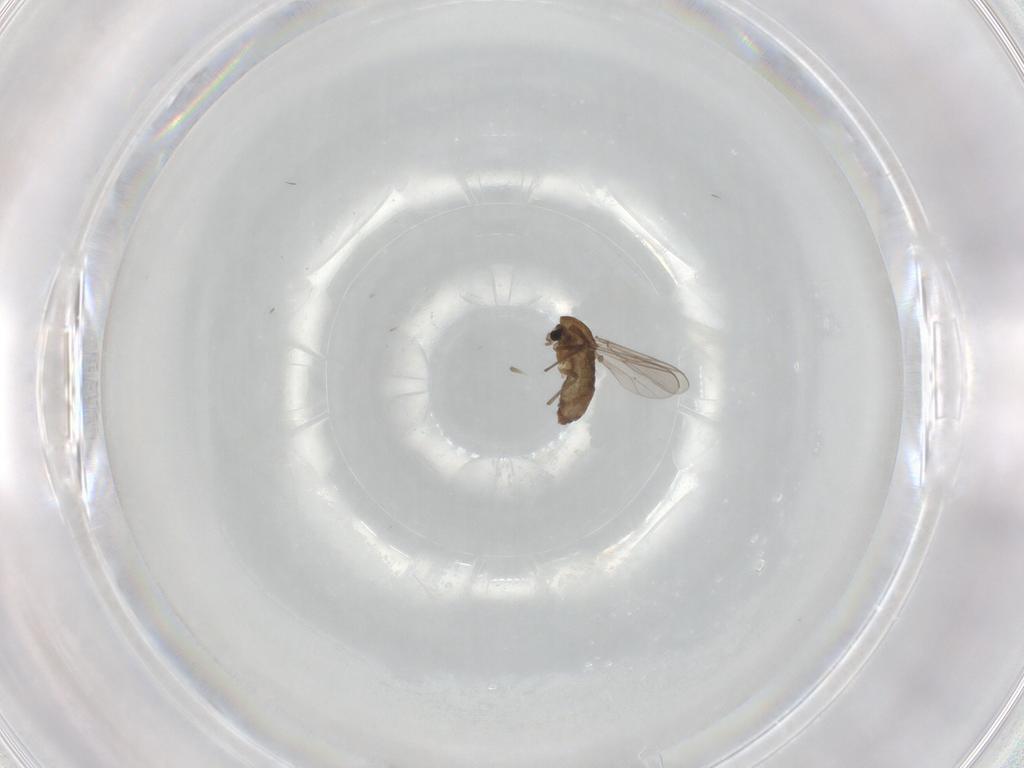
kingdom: Animalia
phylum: Arthropoda
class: Insecta
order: Diptera
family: Chironomidae
